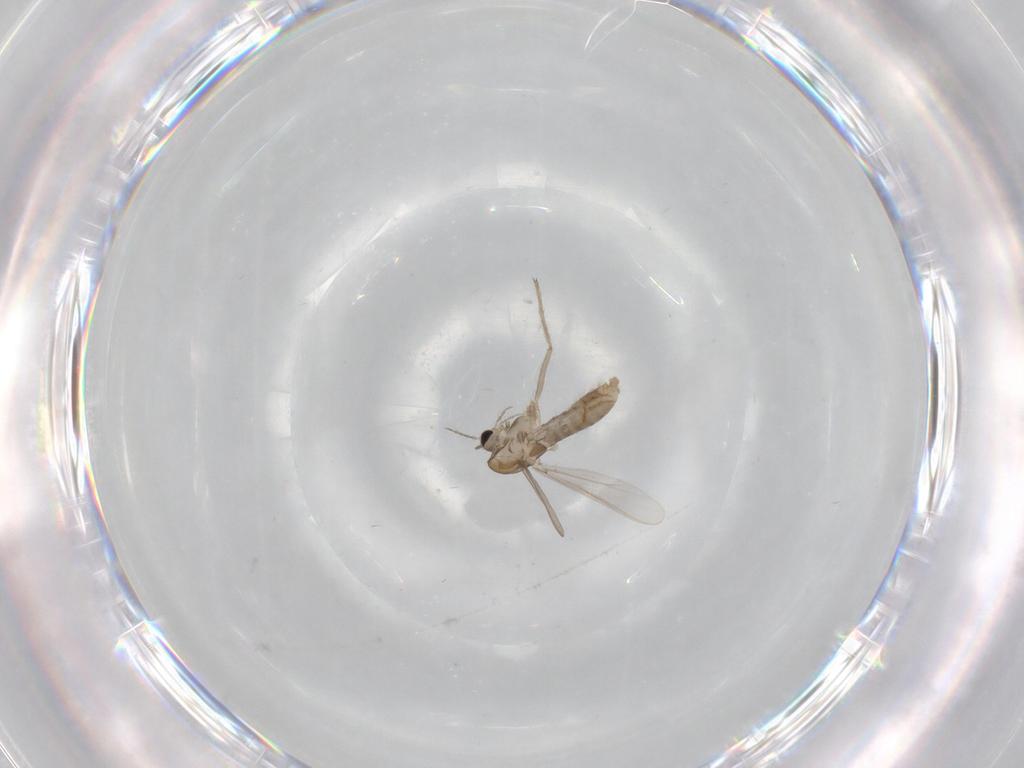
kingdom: Animalia
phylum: Arthropoda
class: Insecta
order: Diptera
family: Chironomidae
